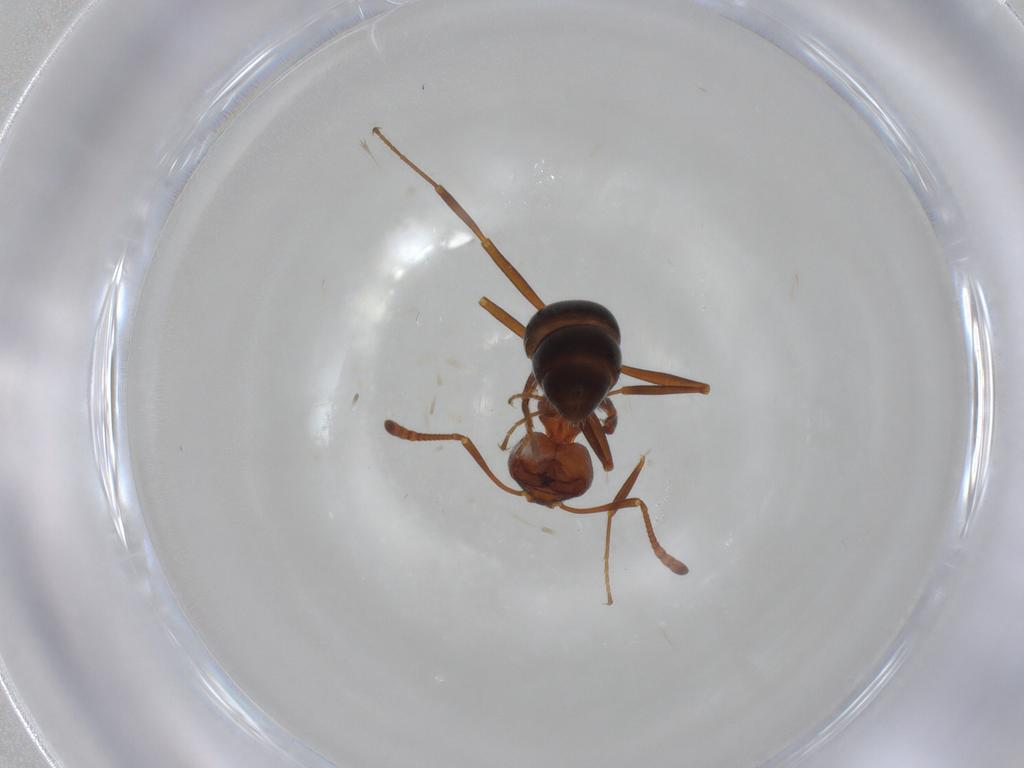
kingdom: Animalia
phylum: Arthropoda
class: Insecta
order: Hymenoptera
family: Formicidae
